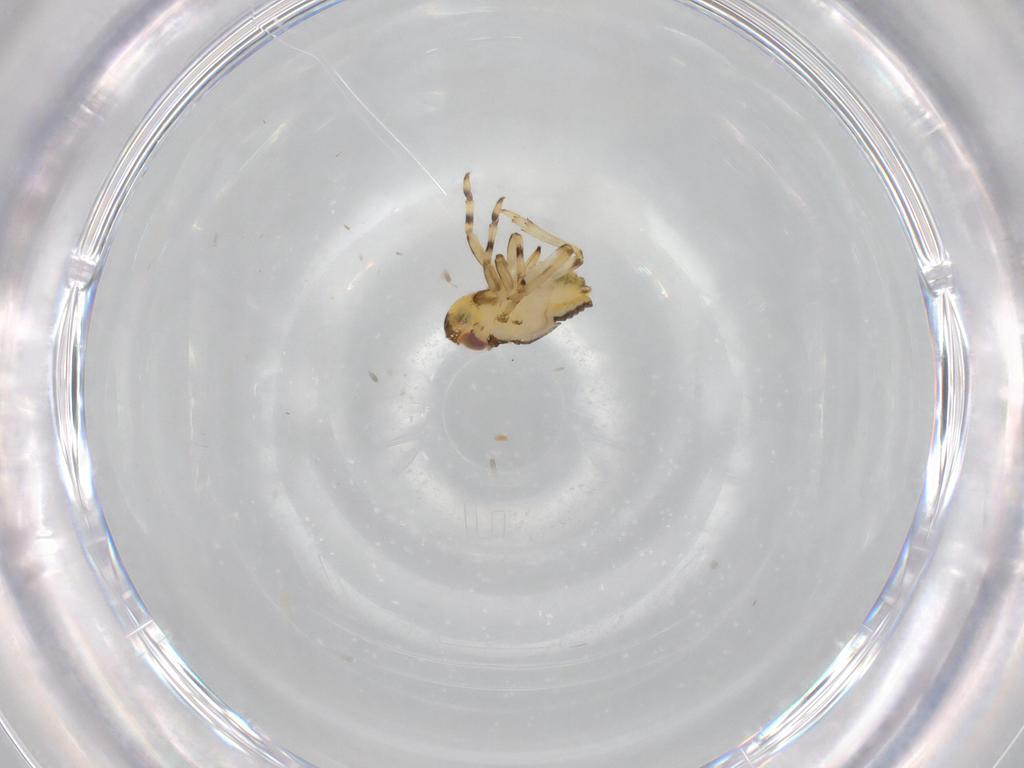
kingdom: Animalia
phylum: Arthropoda
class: Insecta
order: Hemiptera
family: Issidae
